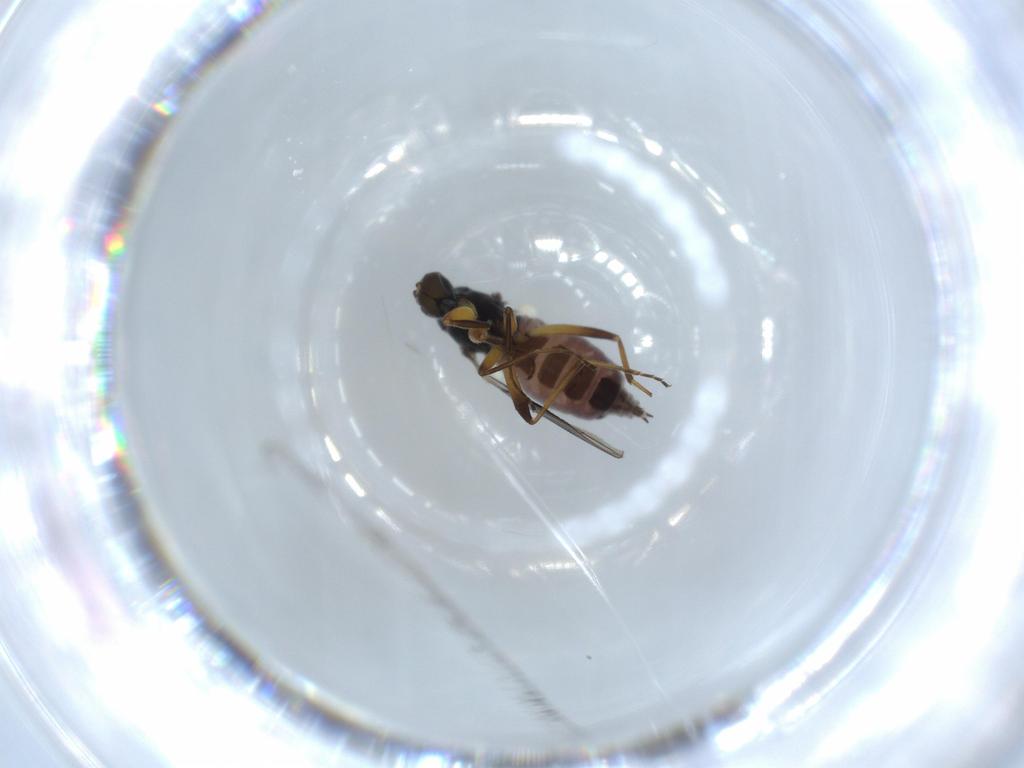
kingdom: Animalia
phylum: Arthropoda
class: Insecta
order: Diptera
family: Hybotidae
